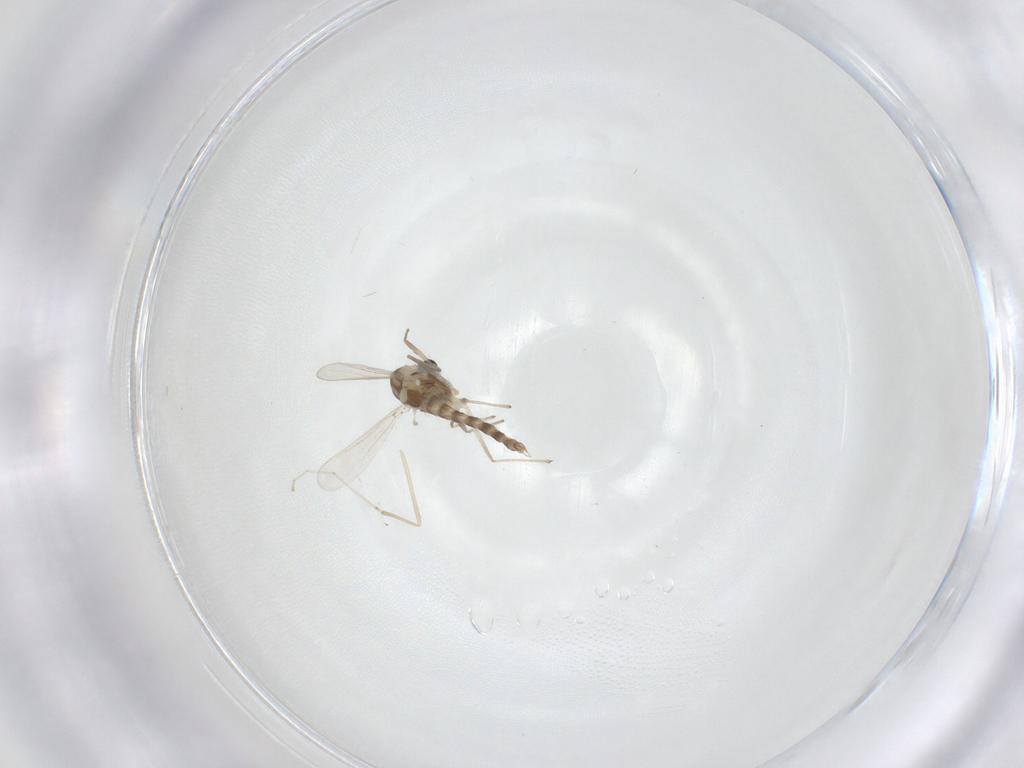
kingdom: Animalia
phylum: Arthropoda
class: Insecta
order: Diptera
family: Chironomidae
